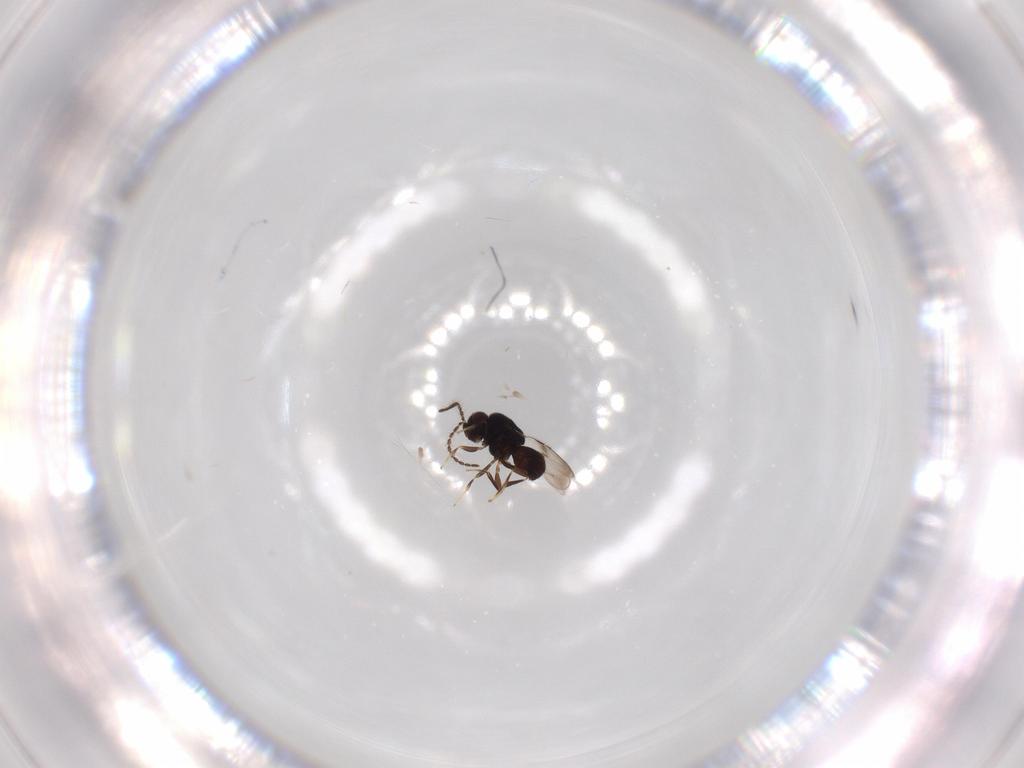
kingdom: Animalia
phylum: Arthropoda
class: Insecta
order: Hymenoptera
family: Ceraphronidae
